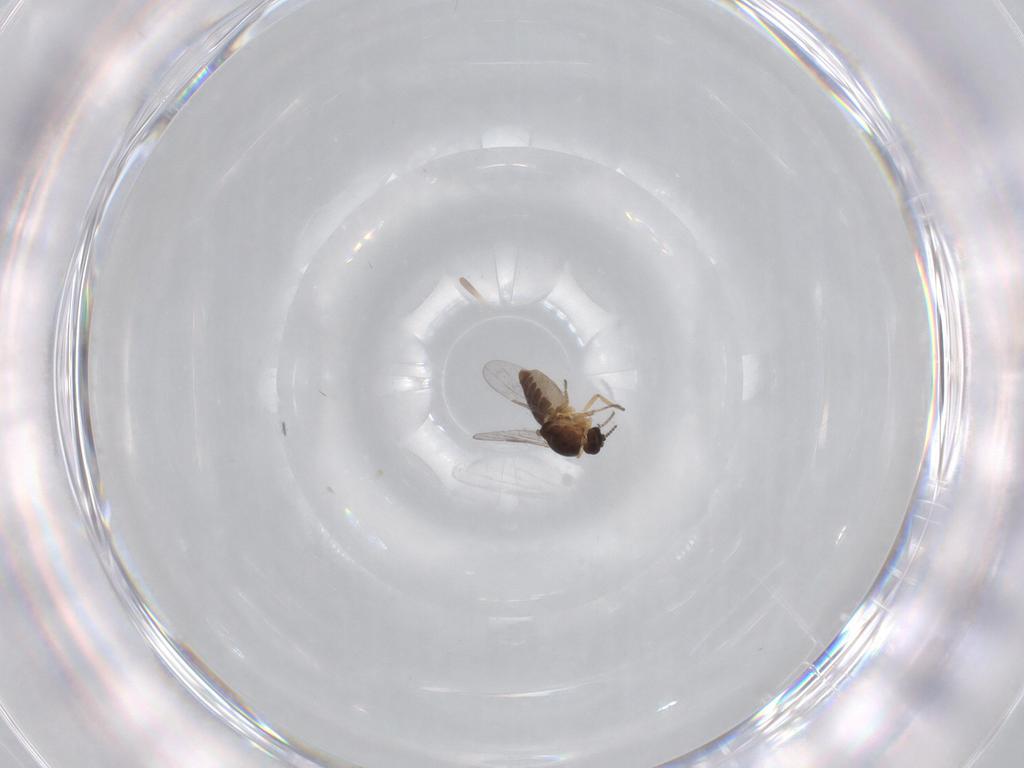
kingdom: Animalia
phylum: Arthropoda
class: Insecta
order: Diptera
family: Ceratopogonidae
